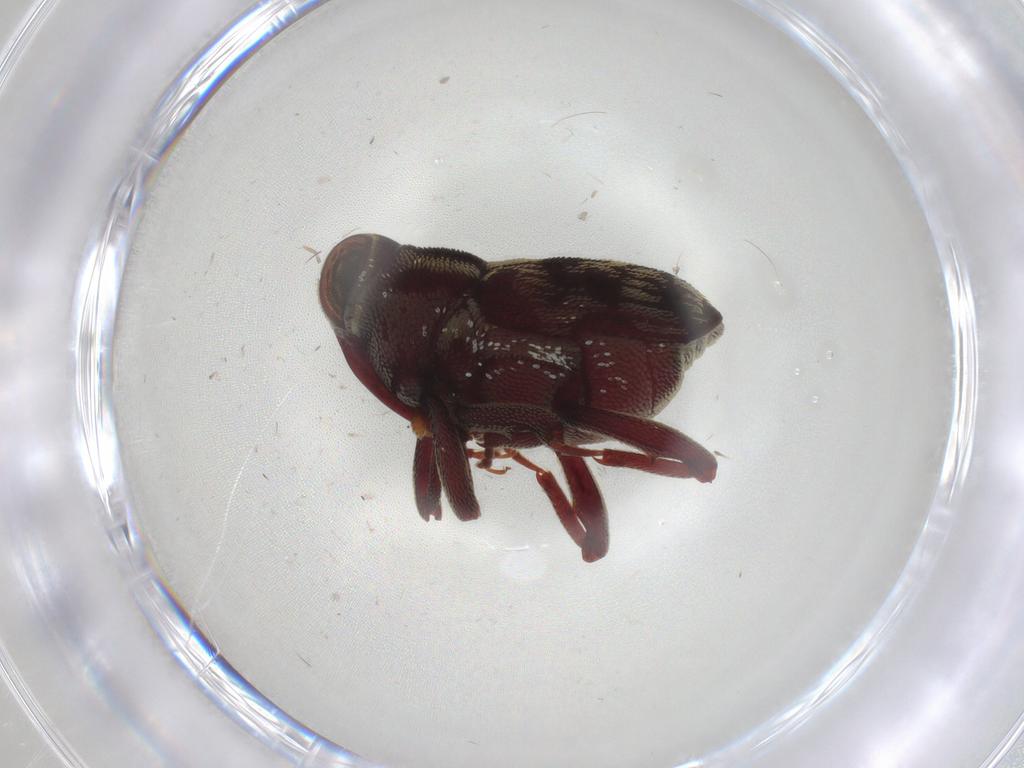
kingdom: Animalia
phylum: Arthropoda
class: Insecta
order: Coleoptera
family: Curculionidae
